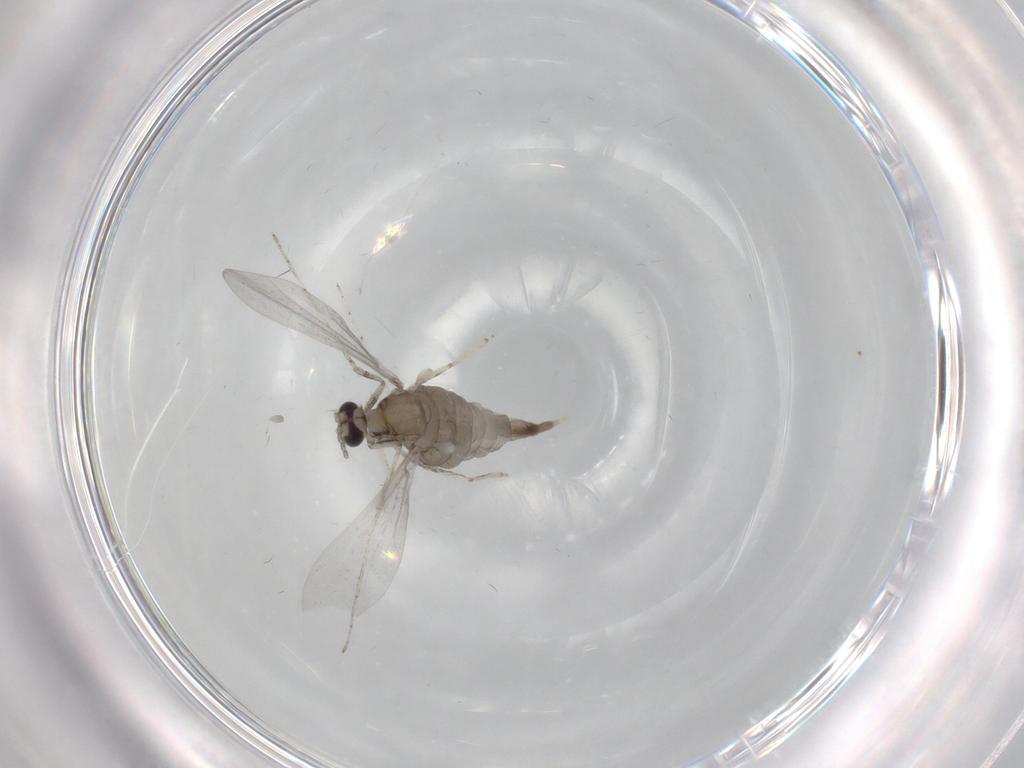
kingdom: Animalia
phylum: Arthropoda
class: Insecta
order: Diptera
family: Cecidomyiidae
